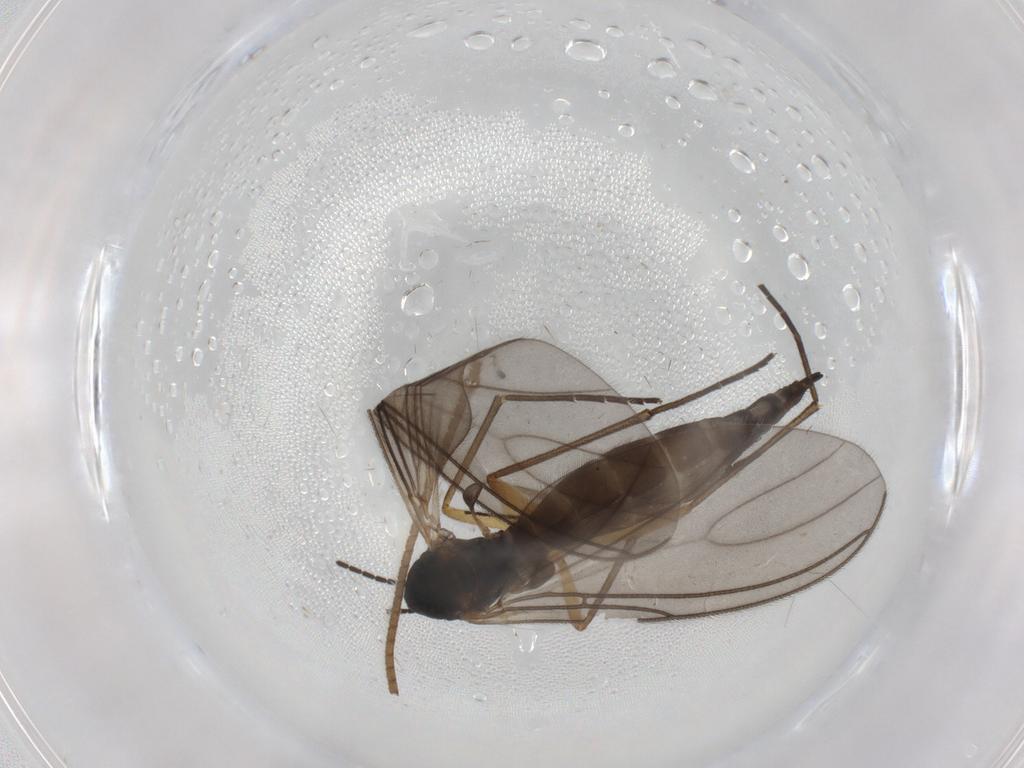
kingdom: Animalia
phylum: Arthropoda
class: Insecta
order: Diptera
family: Sciaridae
